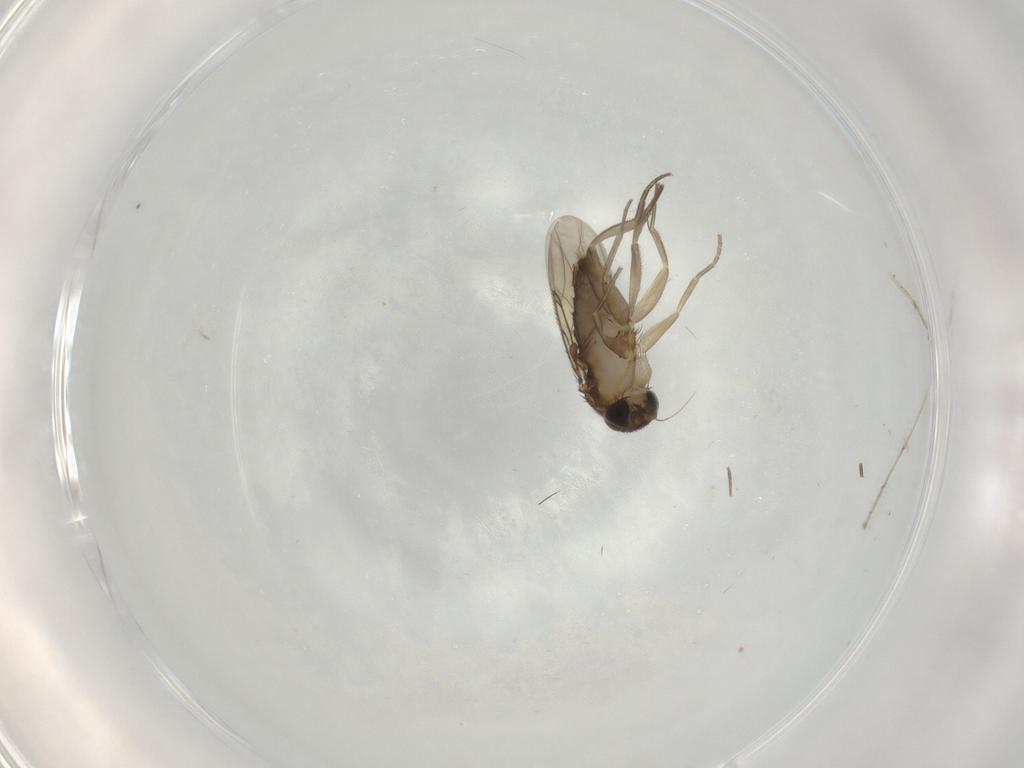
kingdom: Animalia
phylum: Arthropoda
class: Insecta
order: Diptera
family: Phoridae
